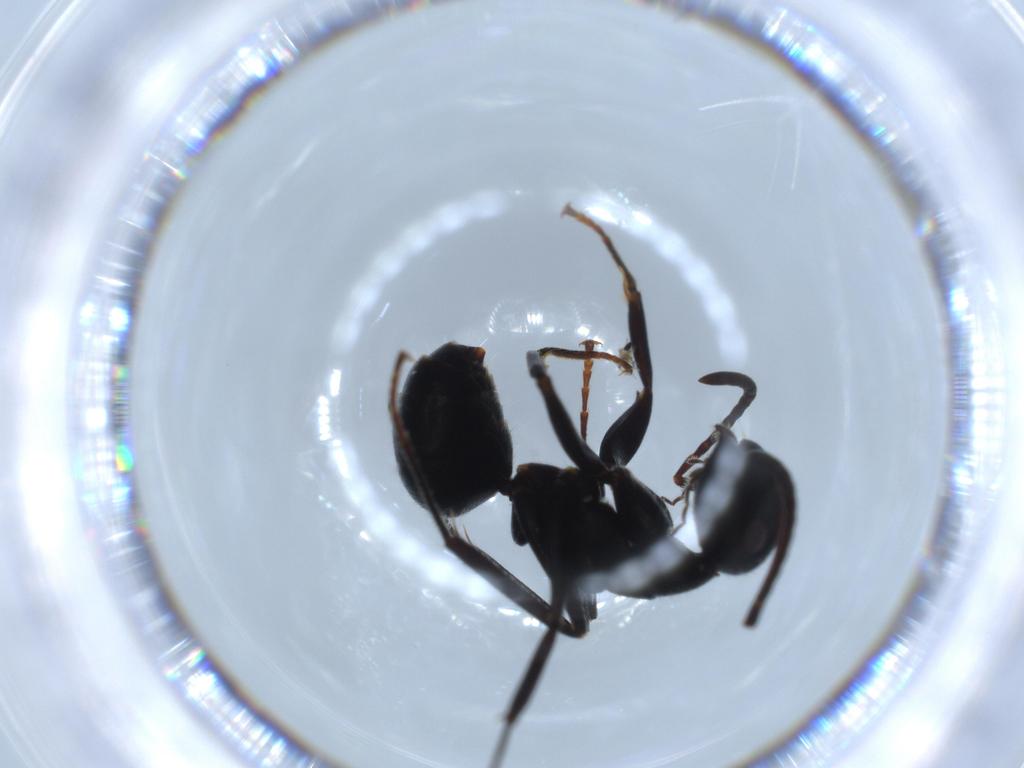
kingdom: Animalia
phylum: Arthropoda
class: Insecta
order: Hymenoptera
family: Formicidae
